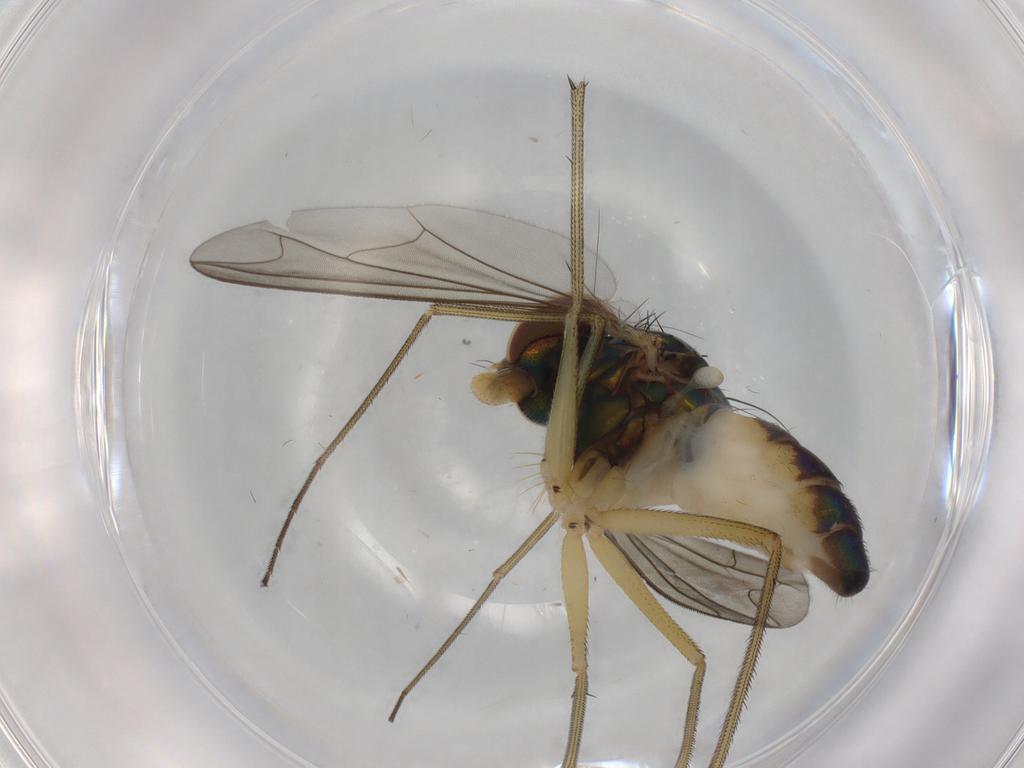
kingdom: Animalia
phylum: Arthropoda
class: Insecta
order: Diptera
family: Dolichopodidae
